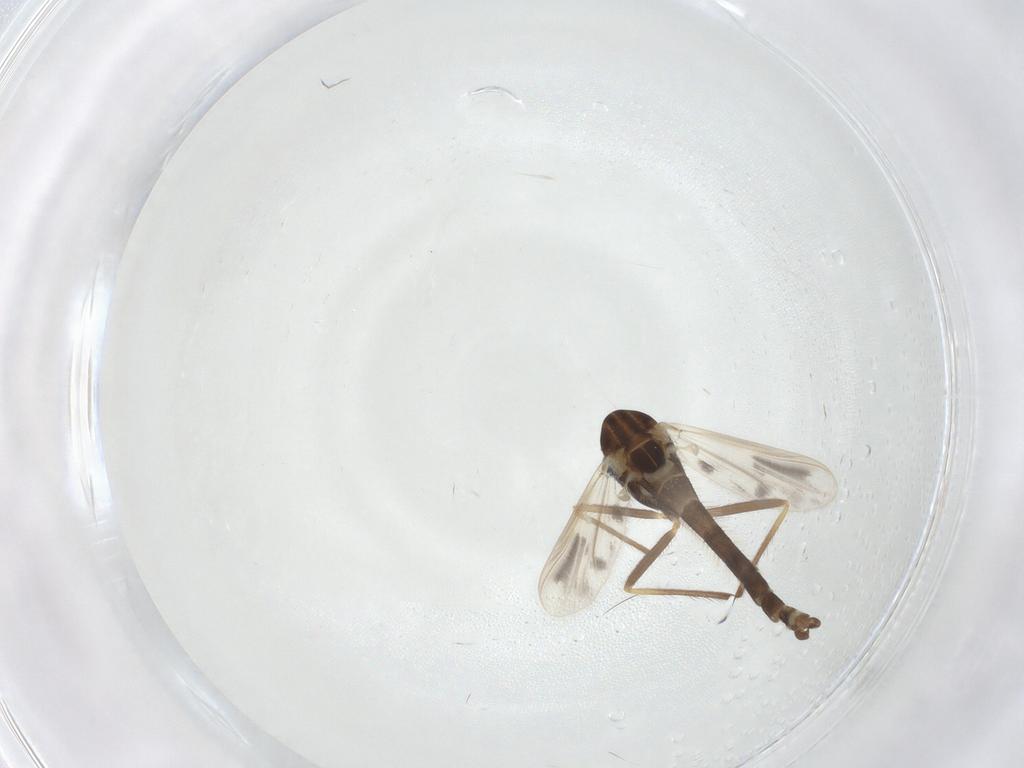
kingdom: Animalia
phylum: Arthropoda
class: Insecta
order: Diptera
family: Chironomidae
